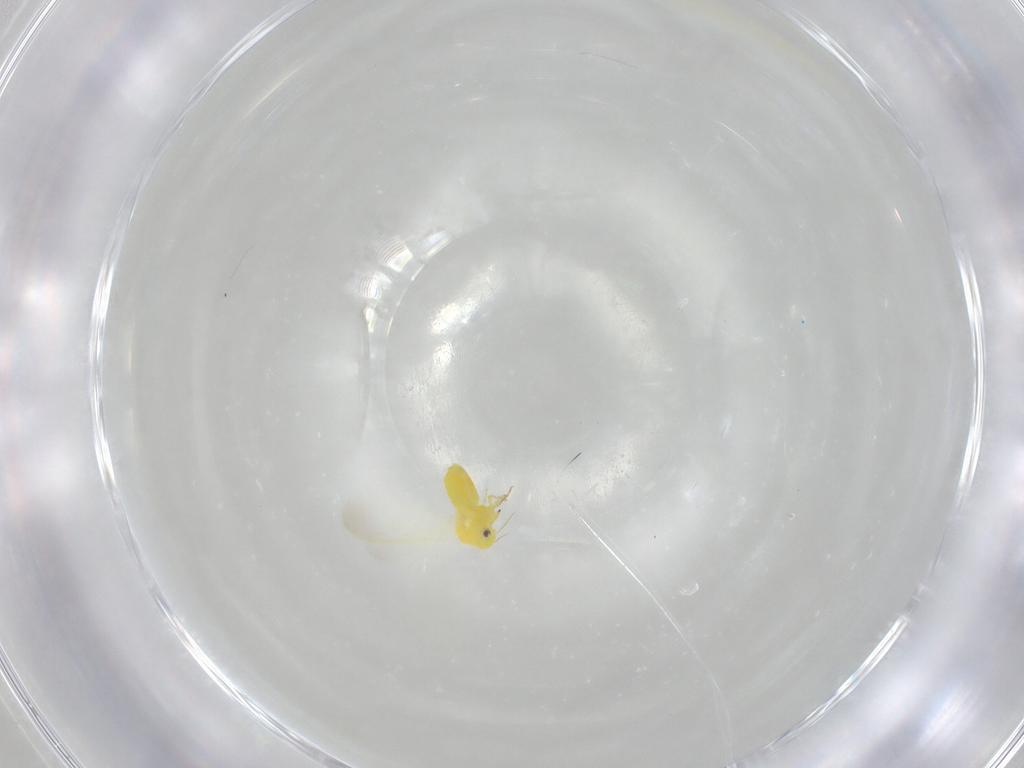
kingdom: Animalia
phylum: Arthropoda
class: Insecta
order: Hemiptera
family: Aleyrodidae
